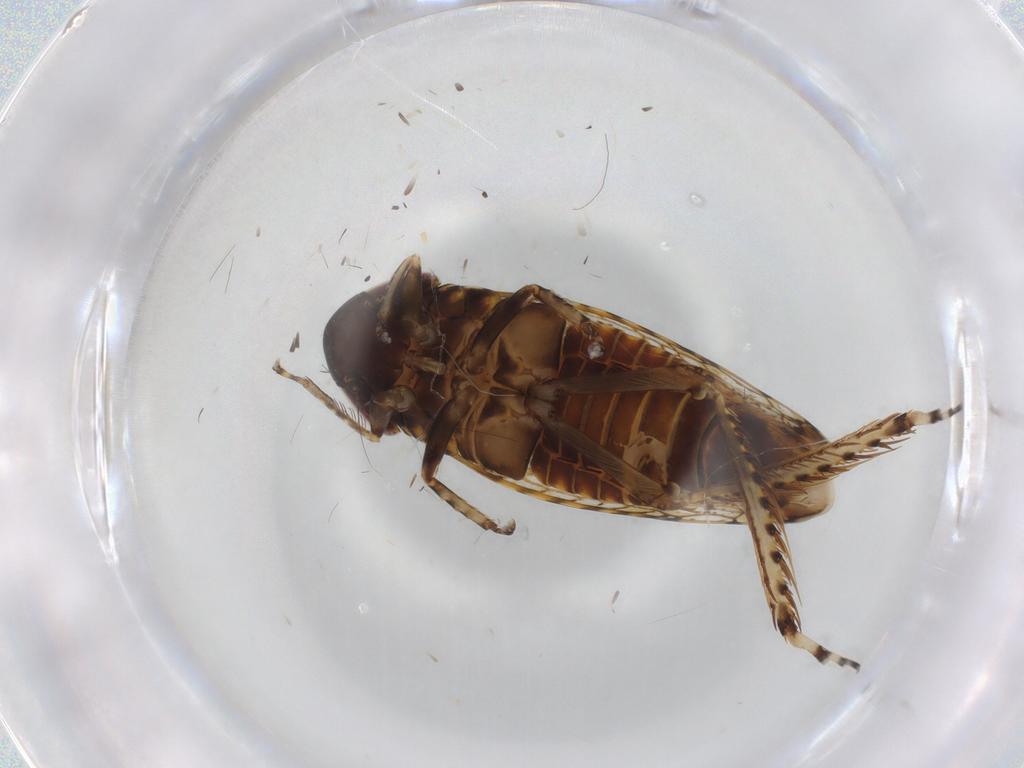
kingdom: Animalia
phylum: Arthropoda
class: Insecta
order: Hemiptera
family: Cicadellidae
